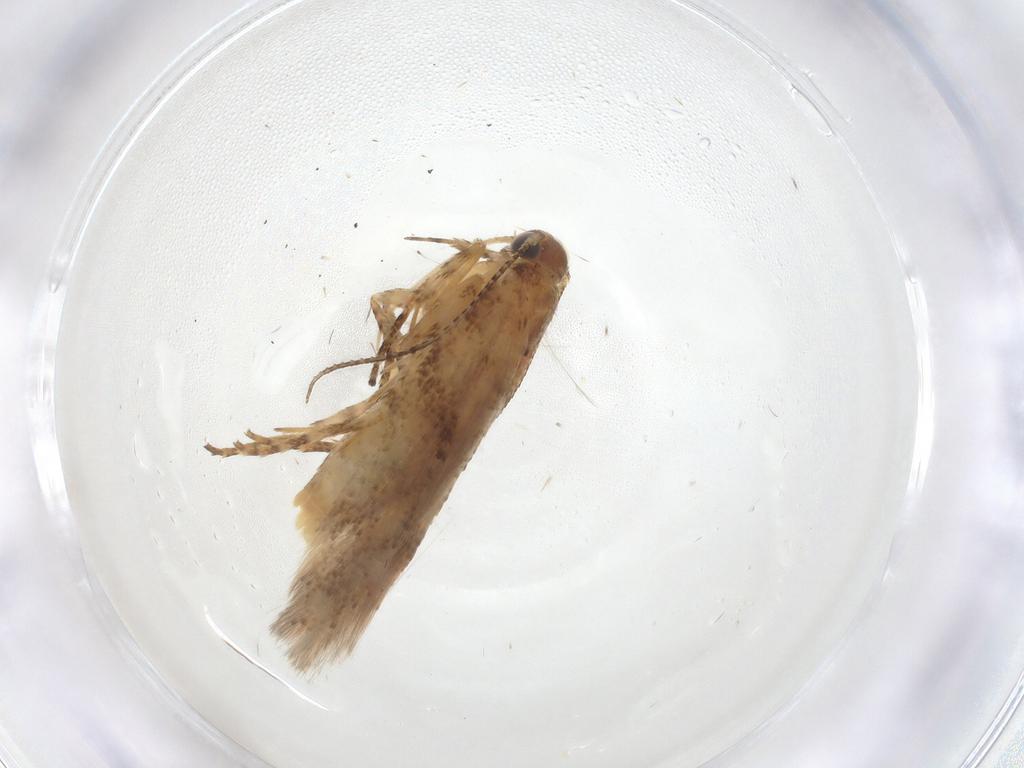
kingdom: Animalia
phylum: Arthropoda
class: Insecta
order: Lepidoptera
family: Gelechiidae
